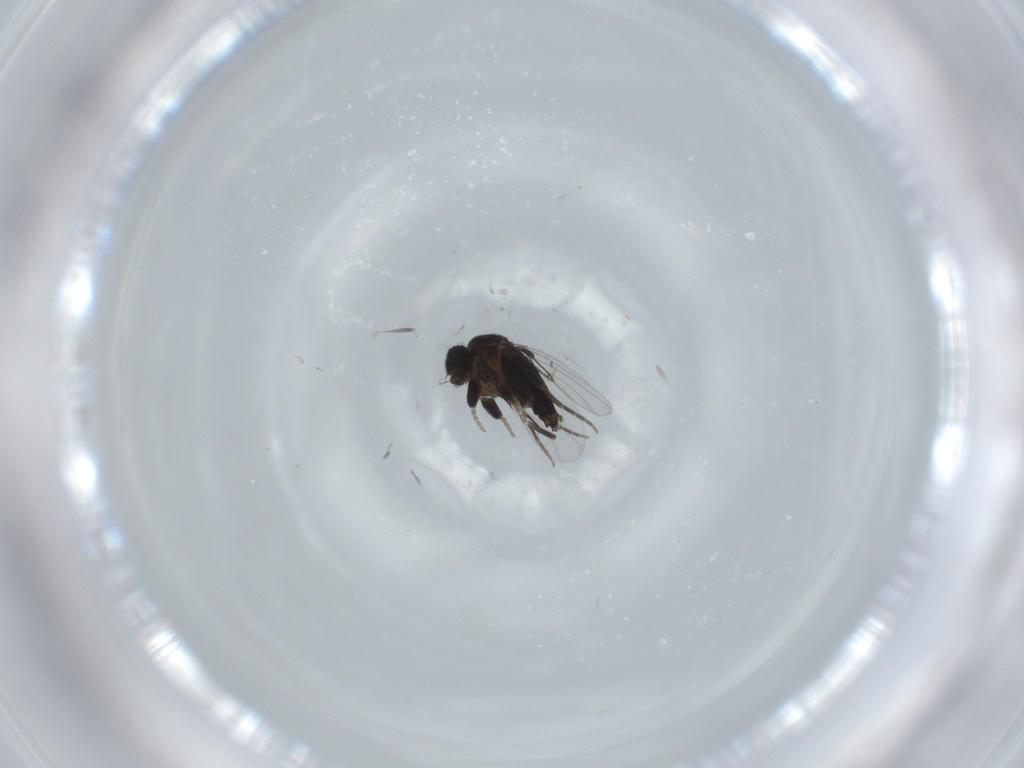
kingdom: Animalia
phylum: Arthropoda
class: Insecta
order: Diptera
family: Phoridae
